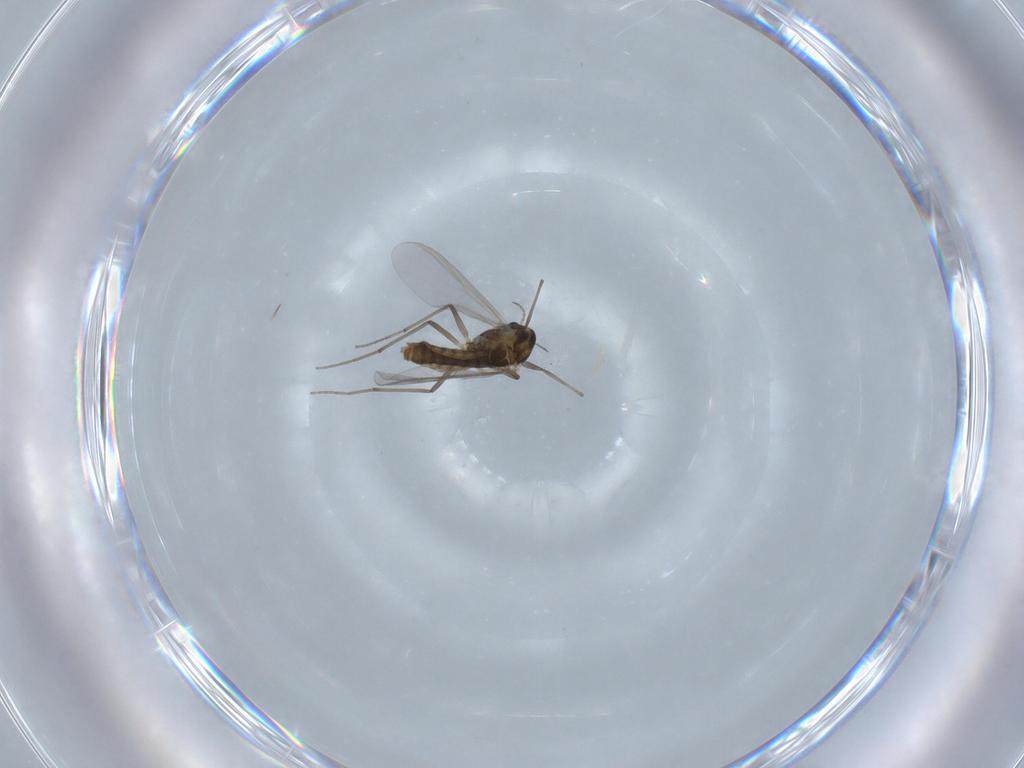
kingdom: Animalia
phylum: Arthropoda
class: Insecta
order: Diptera
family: Chironomidae
